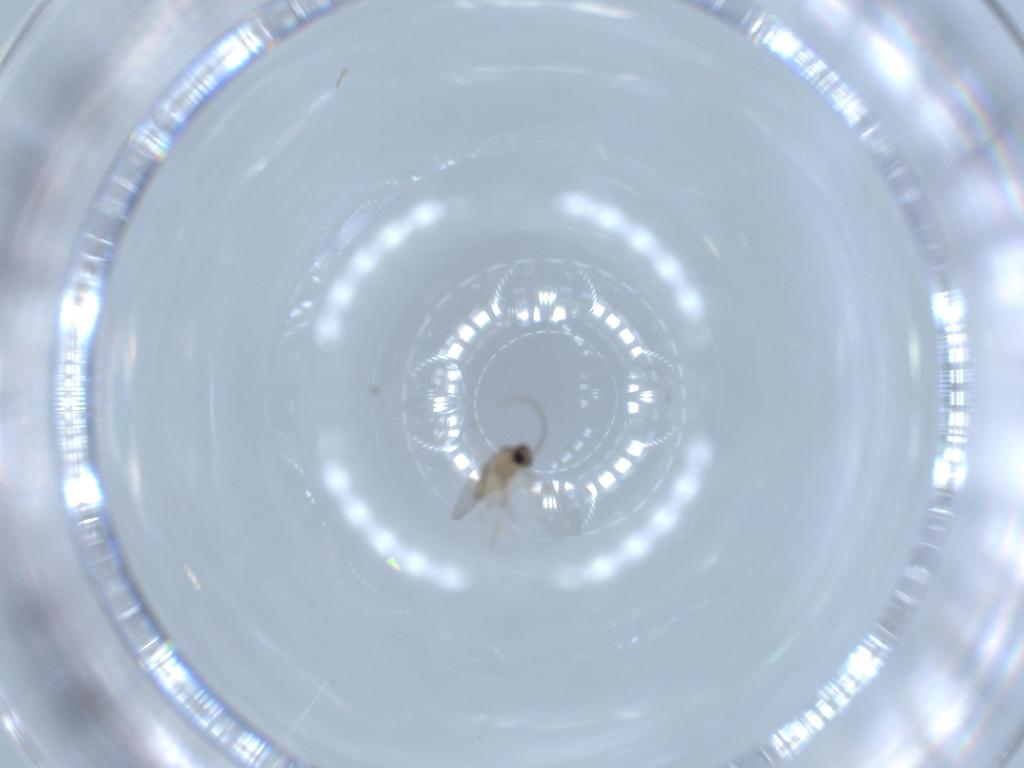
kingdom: Animalia
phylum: Arthropoda
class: Insecta
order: Diptera
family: Cecidomyiidae
